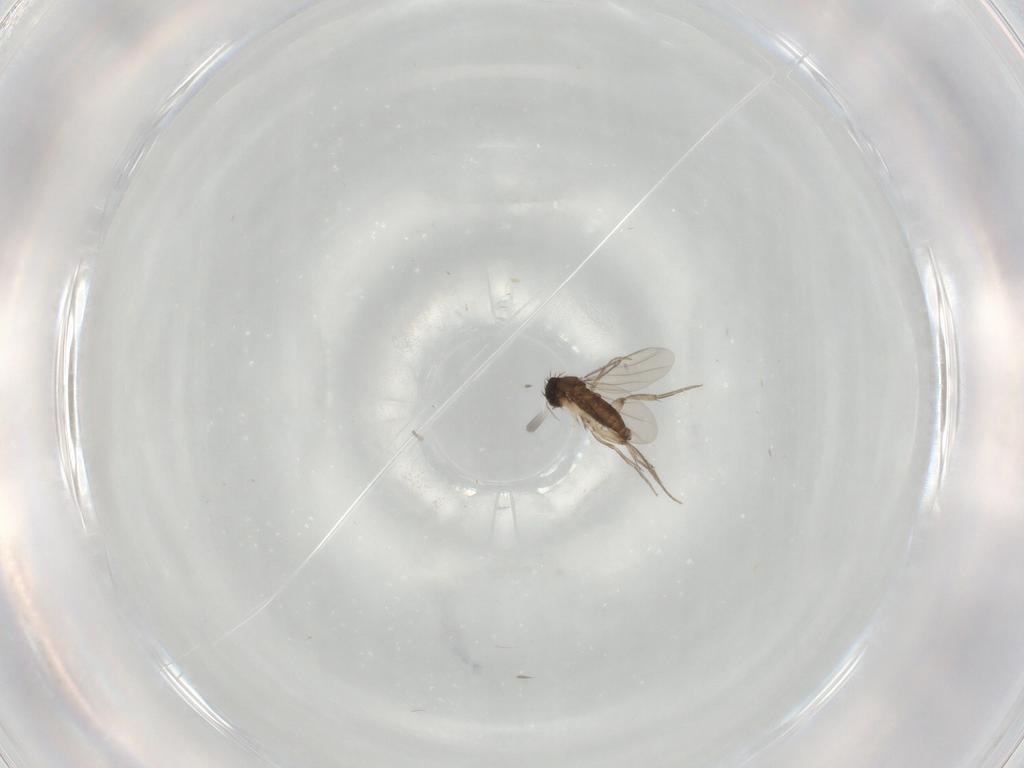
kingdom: Animalia
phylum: Arthropoda
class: Insecta
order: Diptera
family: Phoridae
